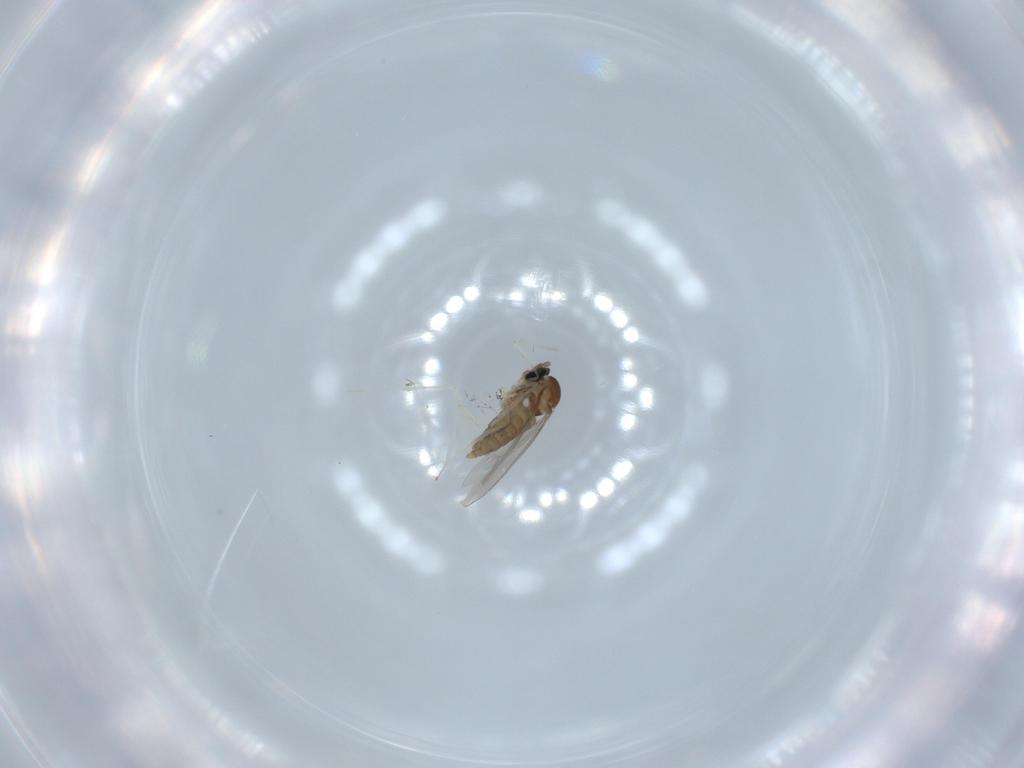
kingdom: Animalia
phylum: Arthropoda
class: Insecta
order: Diptera
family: Cecidomyiidae
